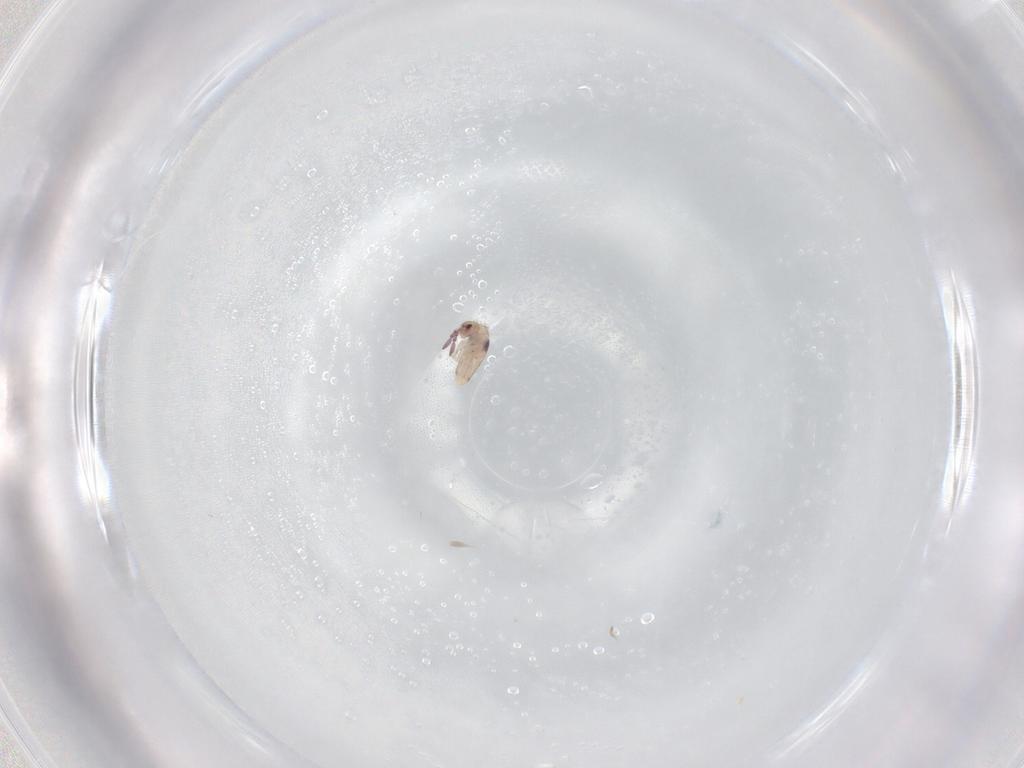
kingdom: Animalia
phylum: Arthropoda
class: Collembola
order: Entomobryomorpha
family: Entomobryidae
